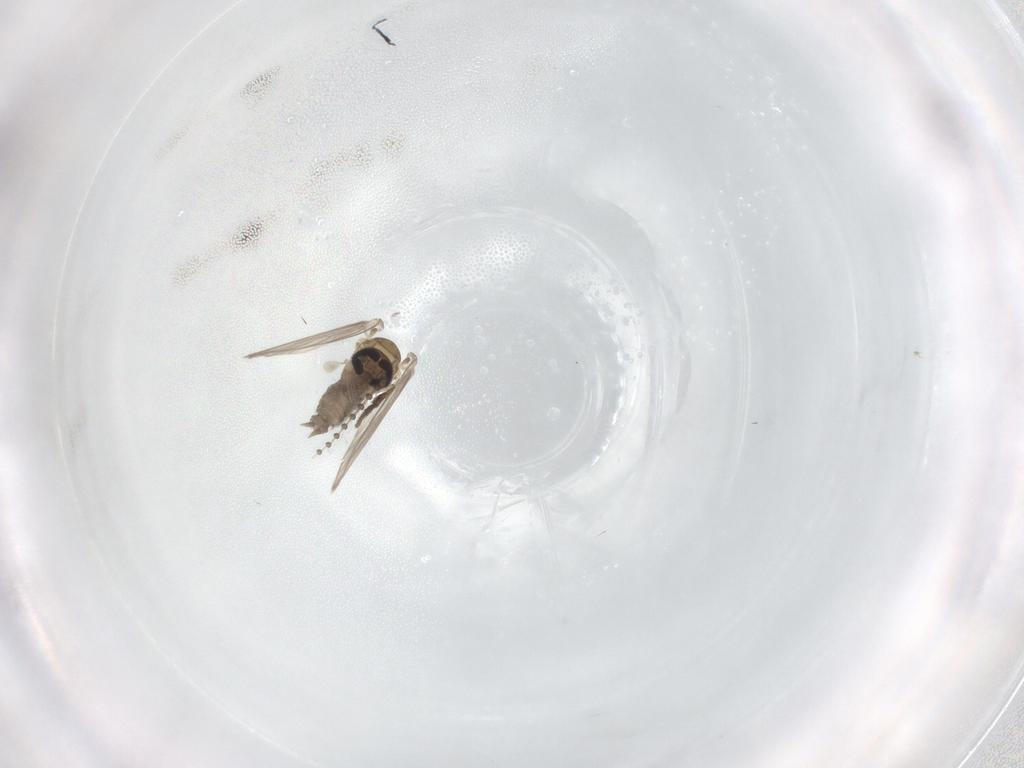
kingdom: Animalia
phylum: Arthropoda
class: Insecta
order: Diptera
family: Psychodidae
